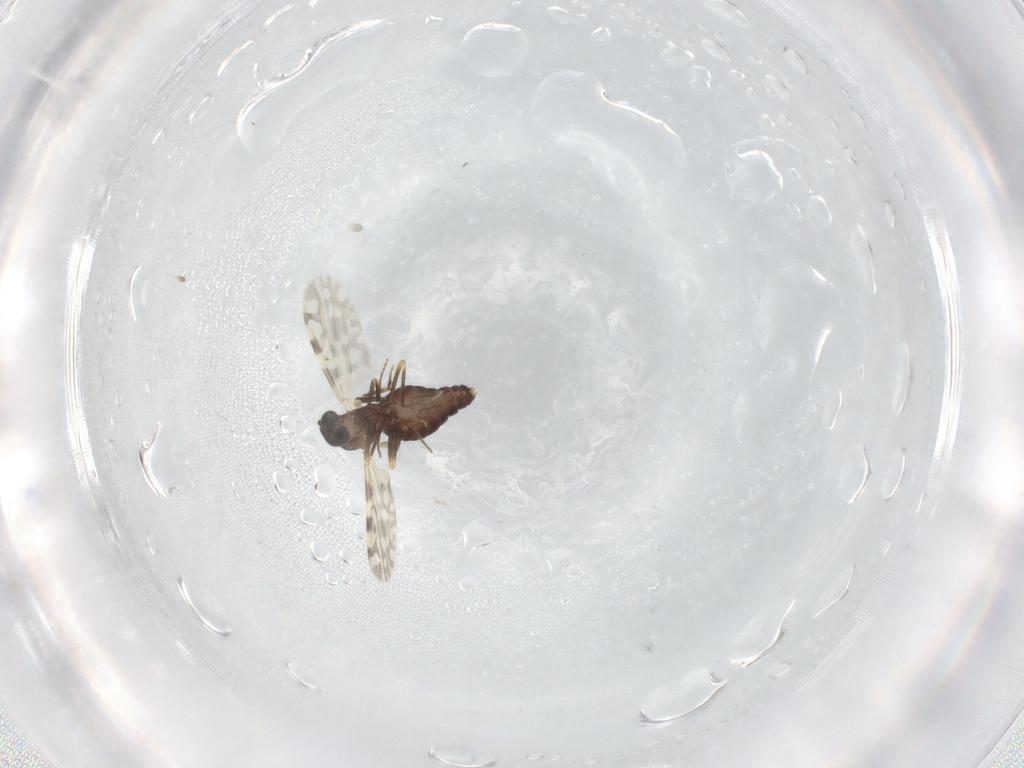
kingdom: Animalia
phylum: Arthropoda
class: Insecta
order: Diptera
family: Ceratopogonidae
